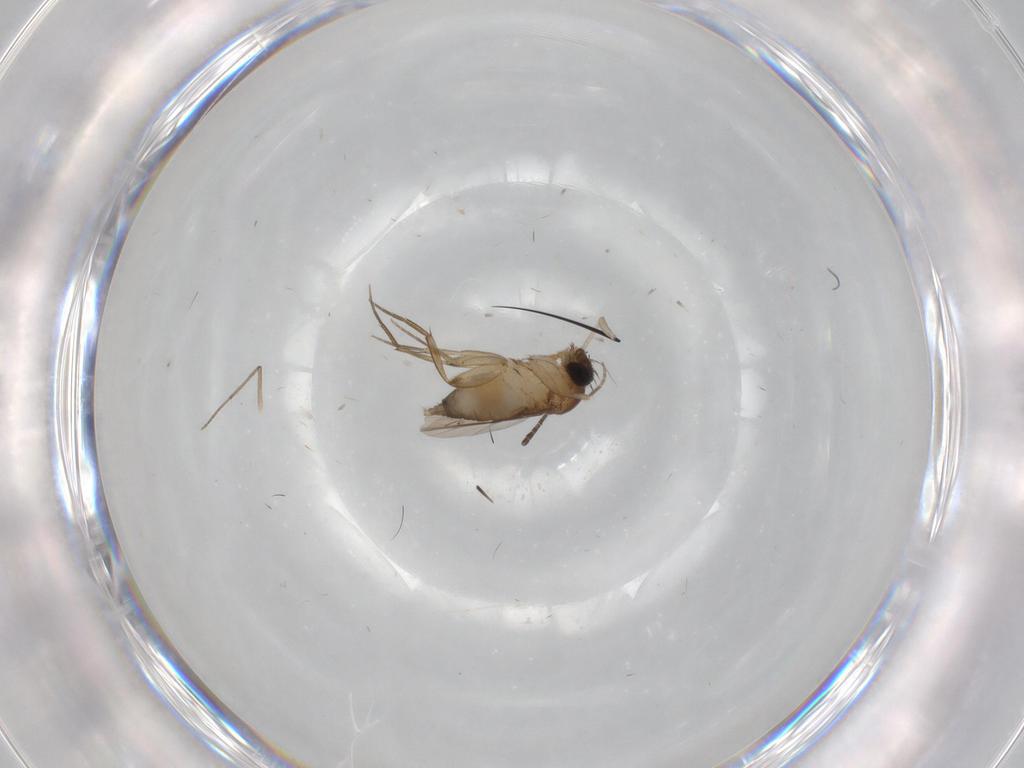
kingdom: Animalia
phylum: Arthropoda
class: Insecta
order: Diptera
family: Phoridae
